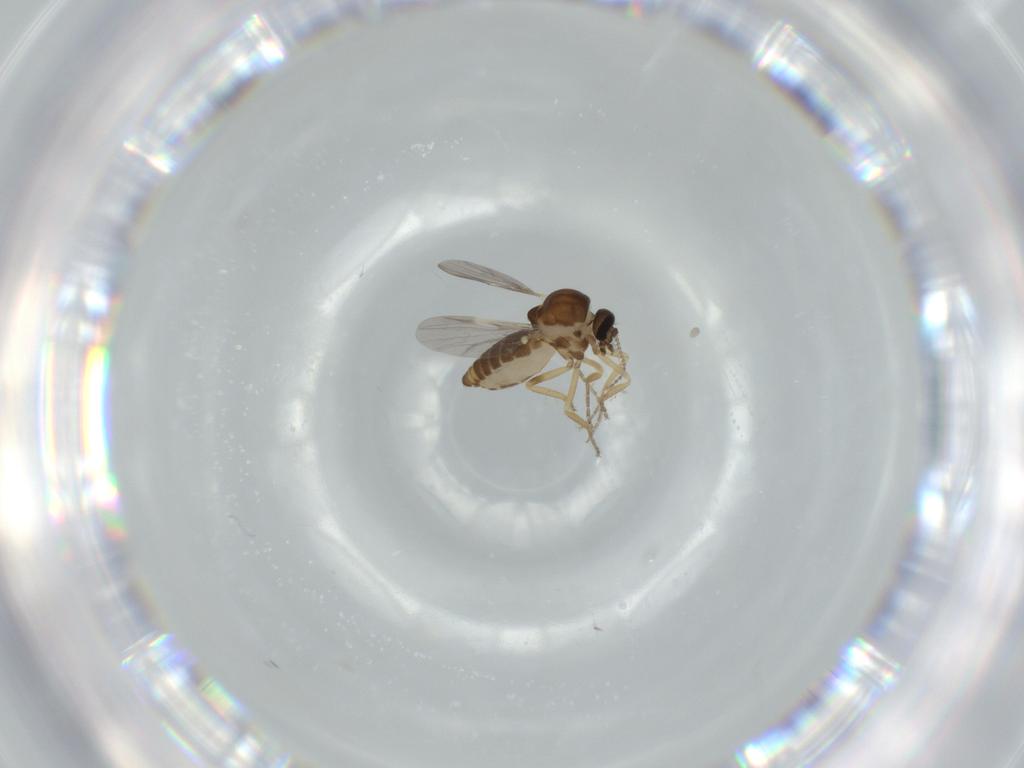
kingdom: Animalia
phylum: Arthropoda
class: Insecta
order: Diptera
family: Ceratopogonidae
